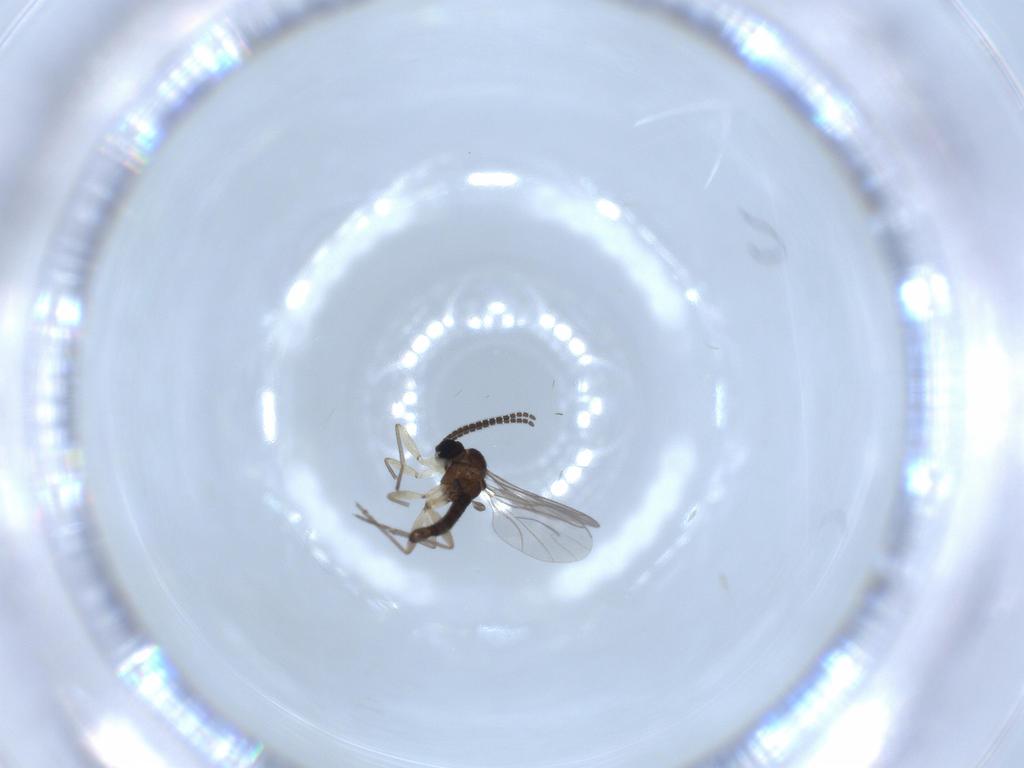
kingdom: Animalia
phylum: Arthropoda
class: Insecta
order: Diptera
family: Sciaridae
